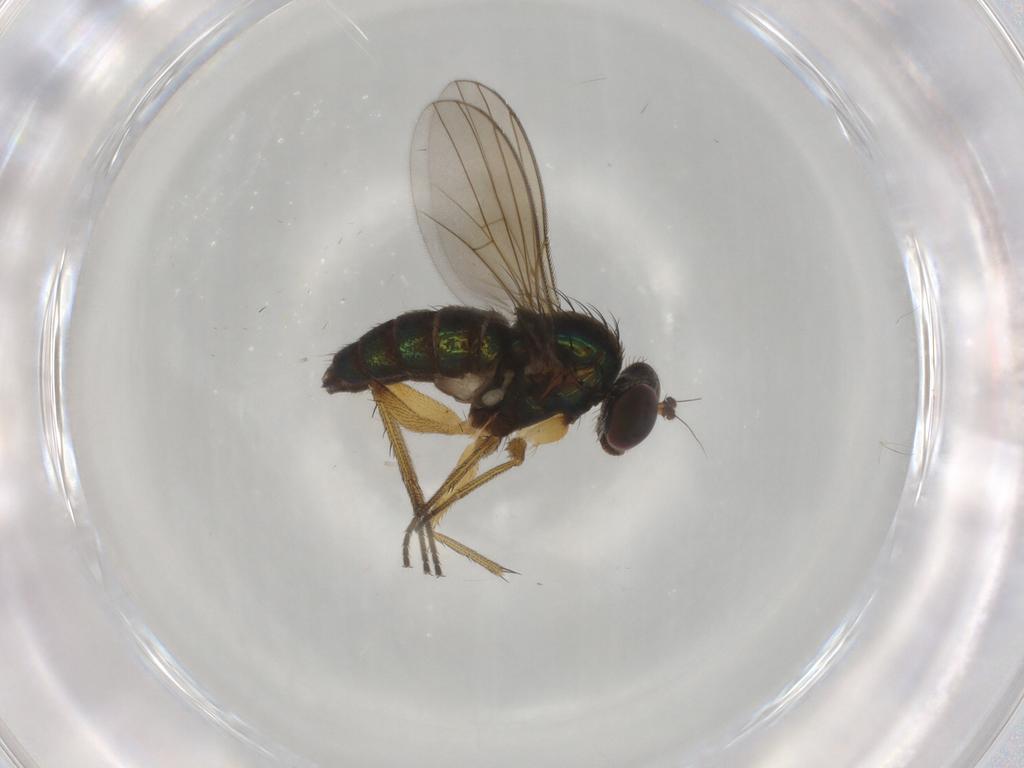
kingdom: Animalia
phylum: Arthropoda
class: Insecta
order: Diptera
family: Dolichopodidae
